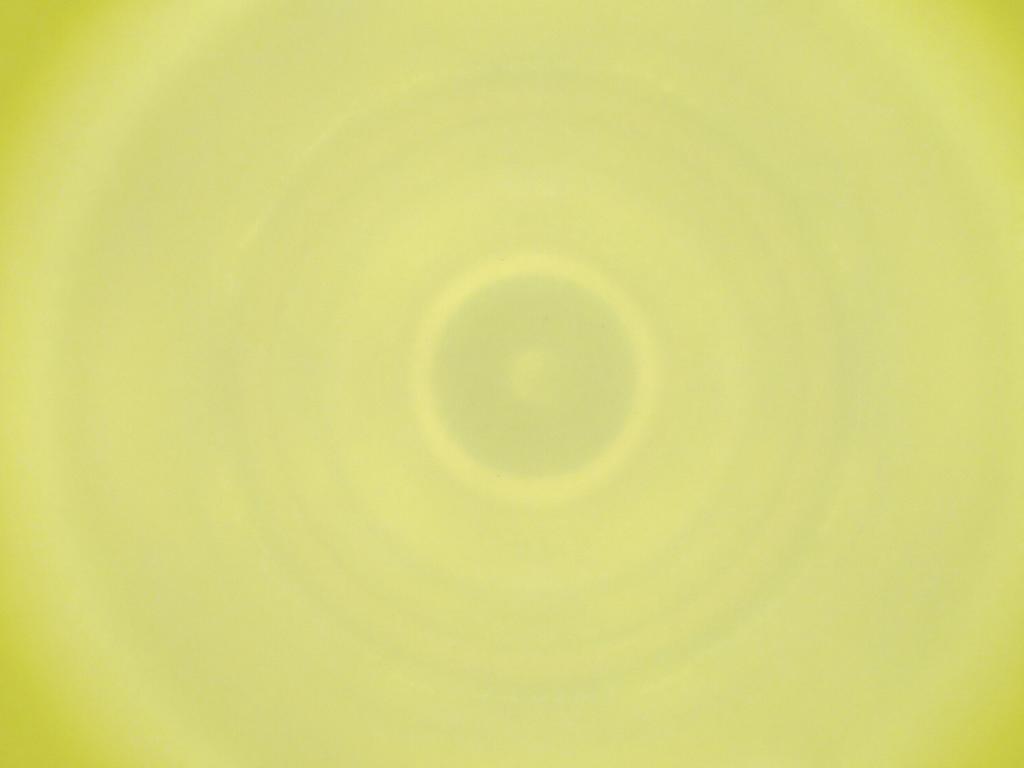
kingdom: Animalia
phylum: Arthropoda
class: Insecta
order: Diptera
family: Cecidomyiidae
